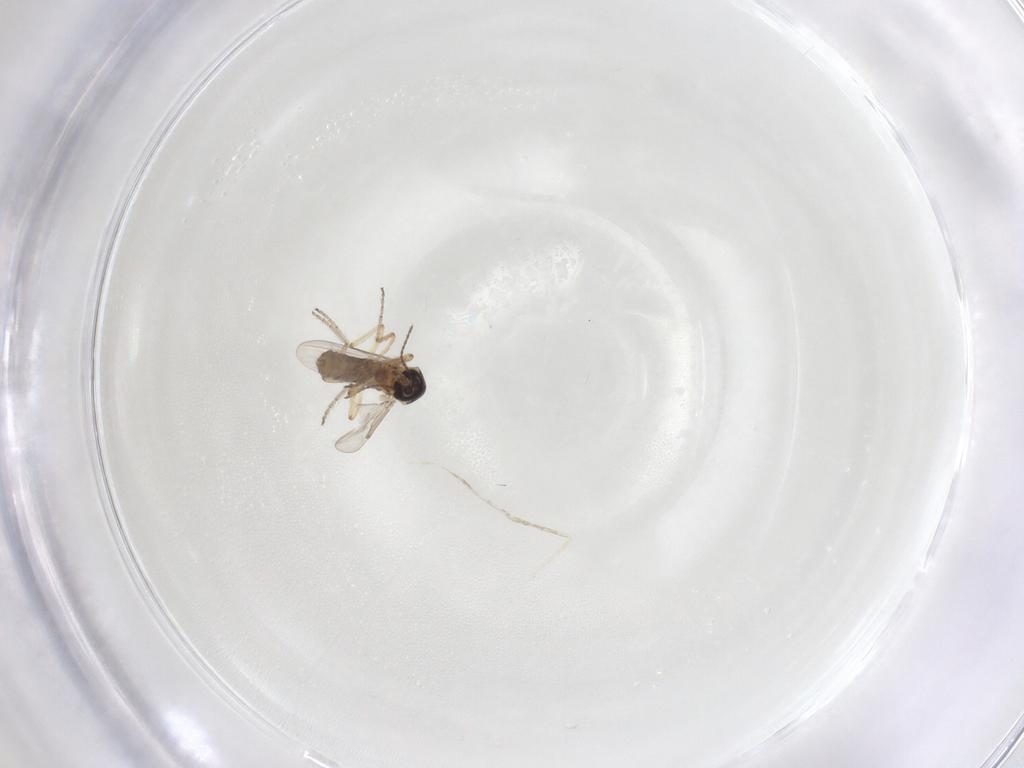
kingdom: Animalia
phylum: Arthropoda
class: Insecta
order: Diptera
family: Ceratopogonidae
